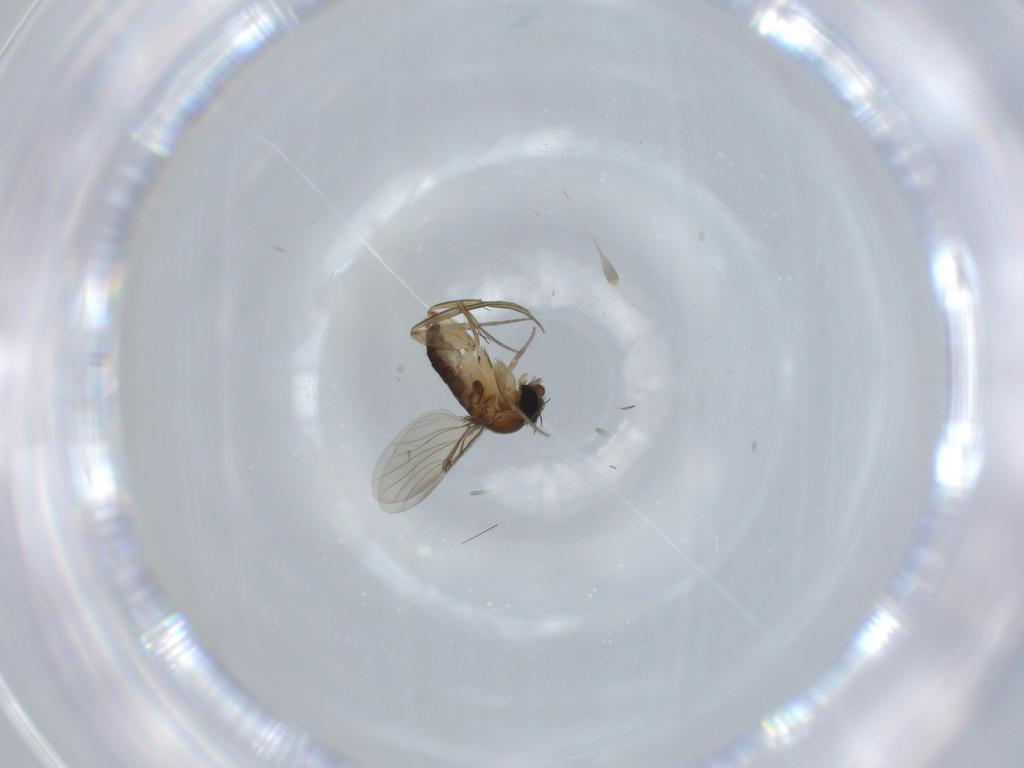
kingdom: Animalia
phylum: Arthropoda
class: Insecta
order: Diptera
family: Phoridae
